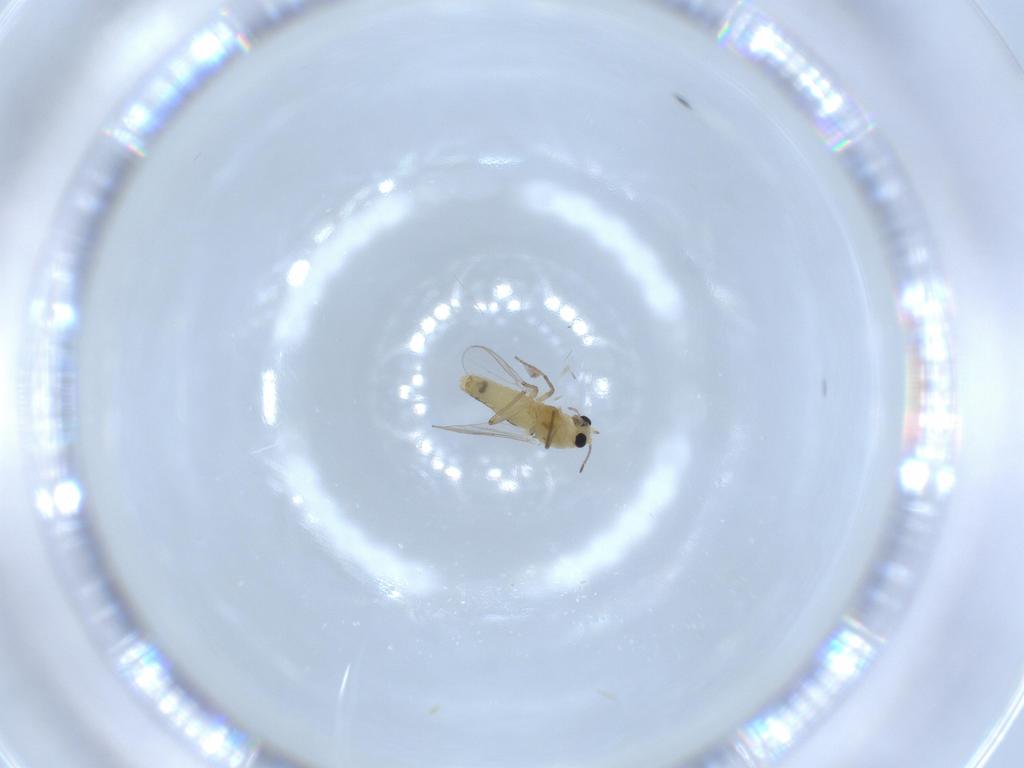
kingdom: Animalia
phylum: Arthropoda
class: Insecta
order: Diptera
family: Chironomidae
